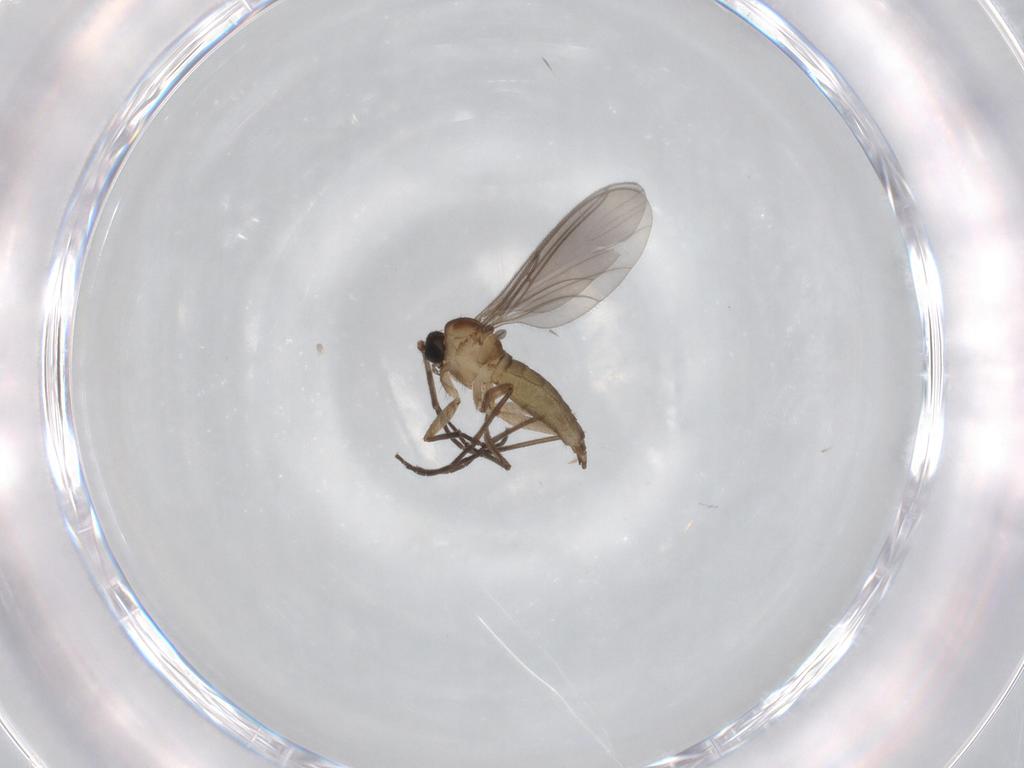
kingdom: Animalia
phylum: Arthropoda
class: Insecta
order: Diptera
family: Sciaridae
